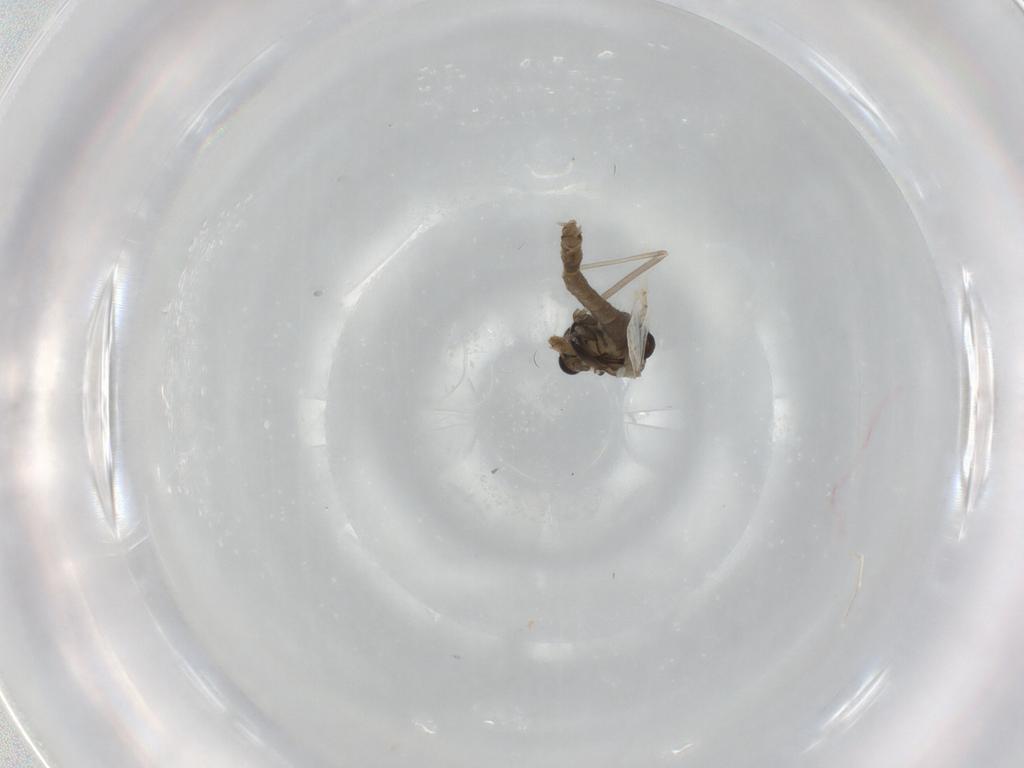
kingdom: Animalia
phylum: Arthropoda
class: Insecta
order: Diptera
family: Chironomidae
